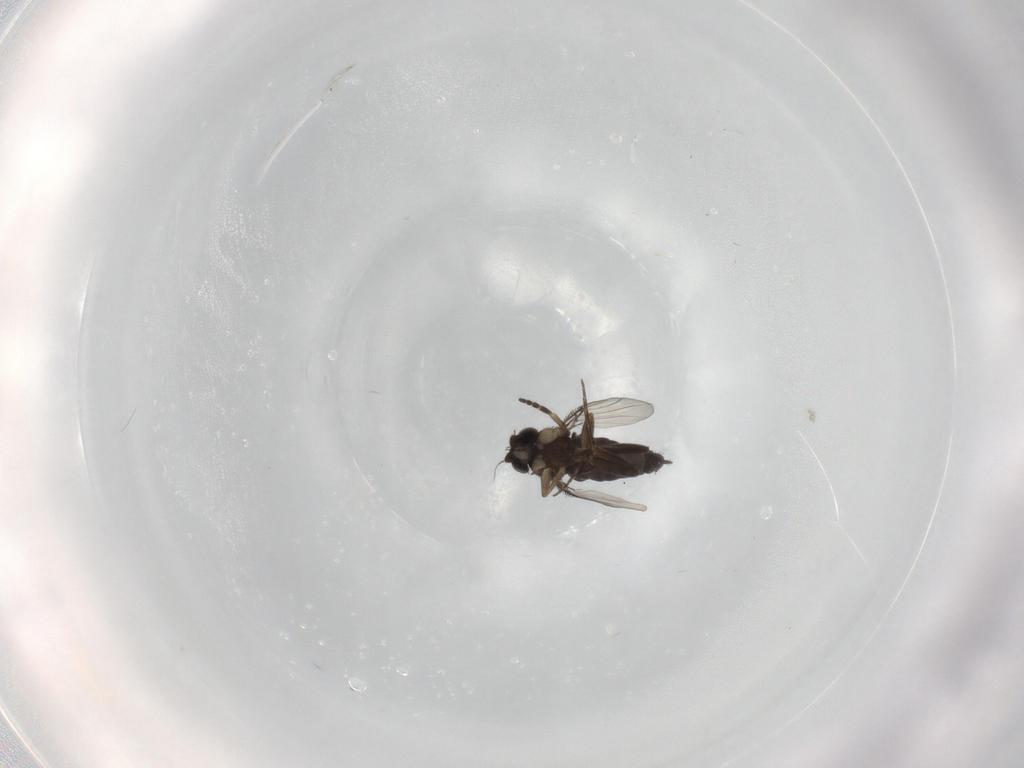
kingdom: Animalia
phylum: Arthropoda
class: Insecta
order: Diptera
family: Phoridae
